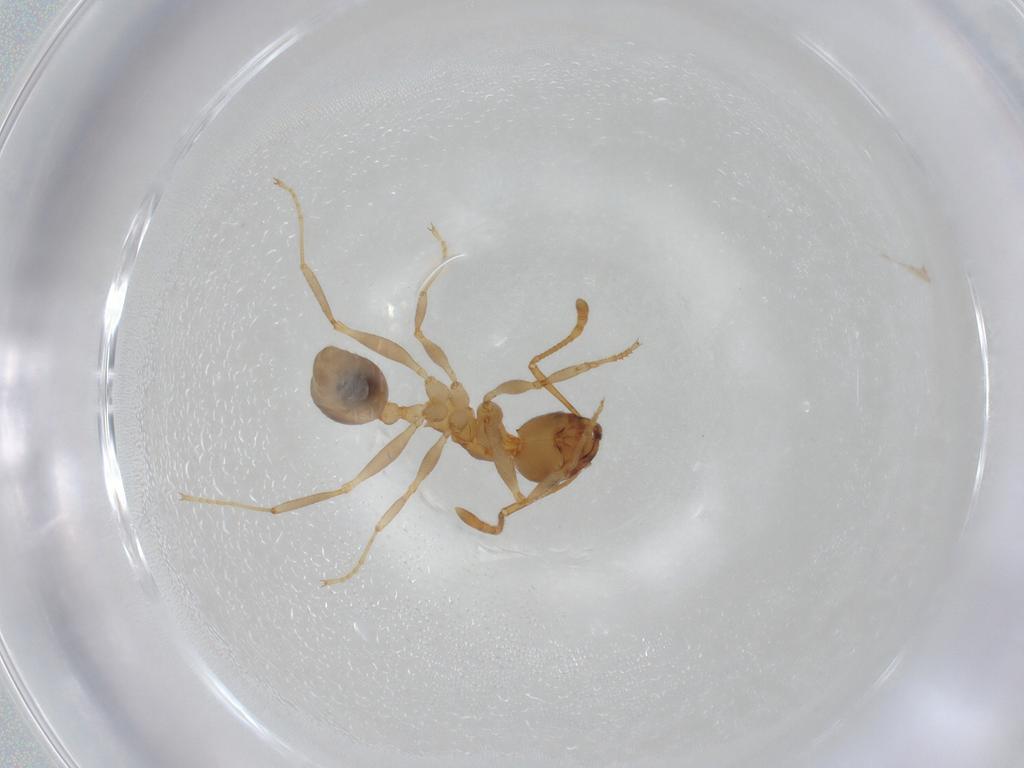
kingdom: Animalia
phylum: Arthropoda
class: Insecta
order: Hymenoptera
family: Formicidae
